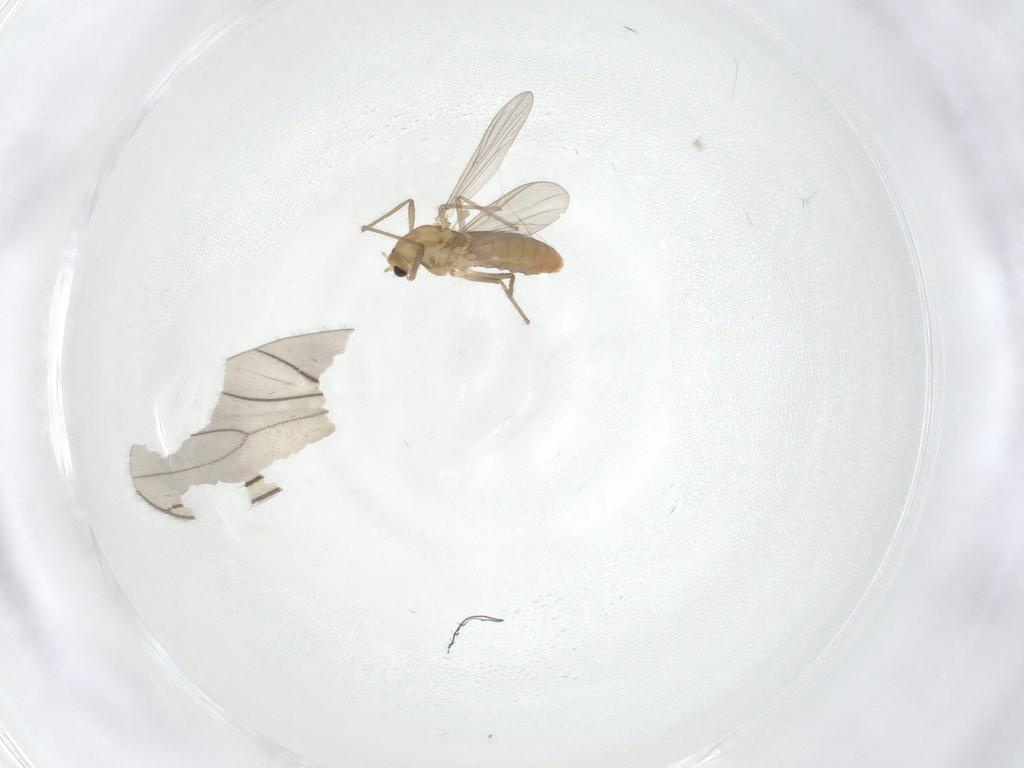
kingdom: Animalia
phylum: Arthropoda
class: Insecta
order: Diptera
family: Chironomidae
